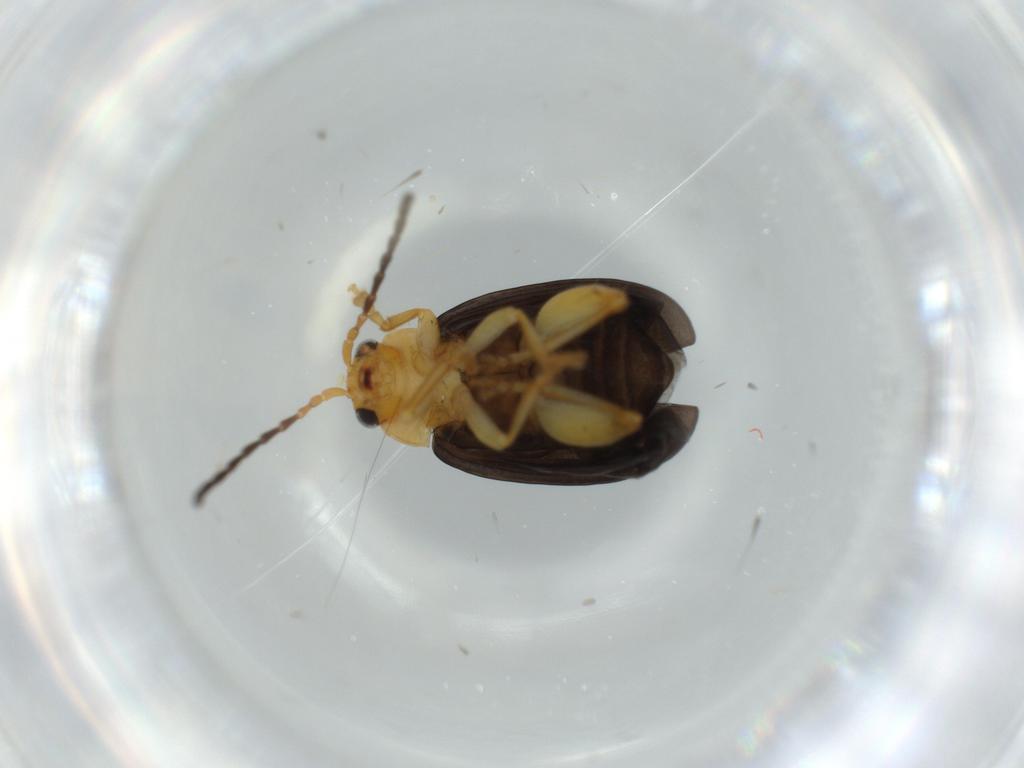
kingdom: Animalia
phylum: Arthropoda
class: Insecta
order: Coleoptera
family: Chrysomelidae
